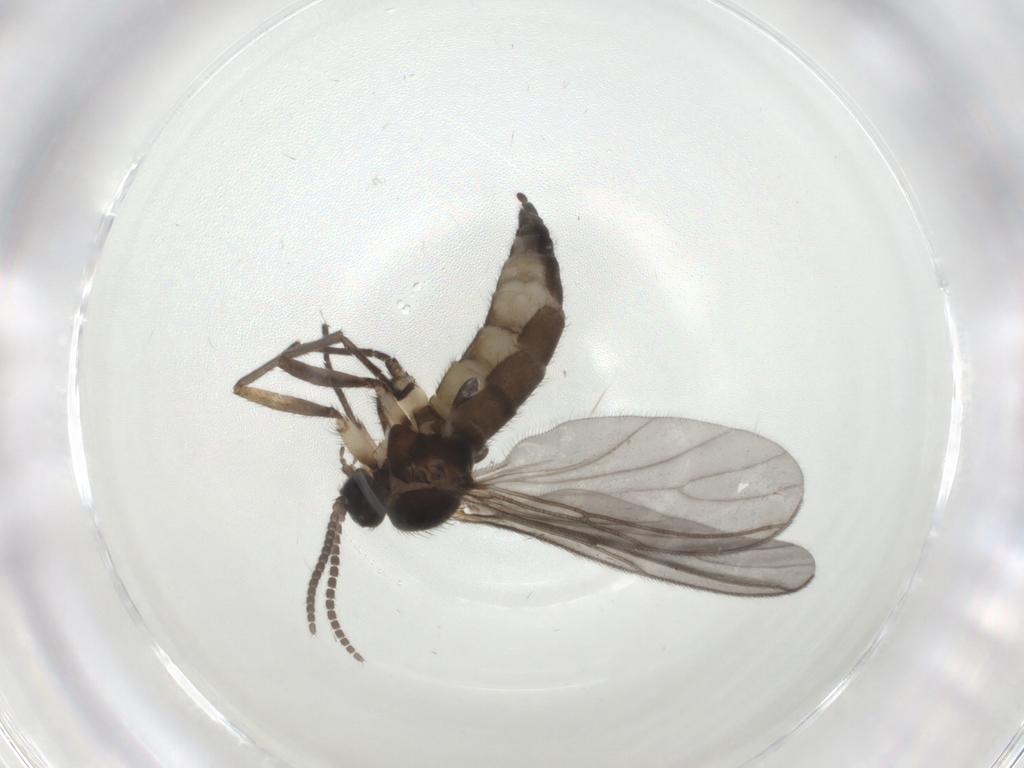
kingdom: Animalia
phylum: Arthropoda
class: Insecta
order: Diptera
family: Sciaridae
